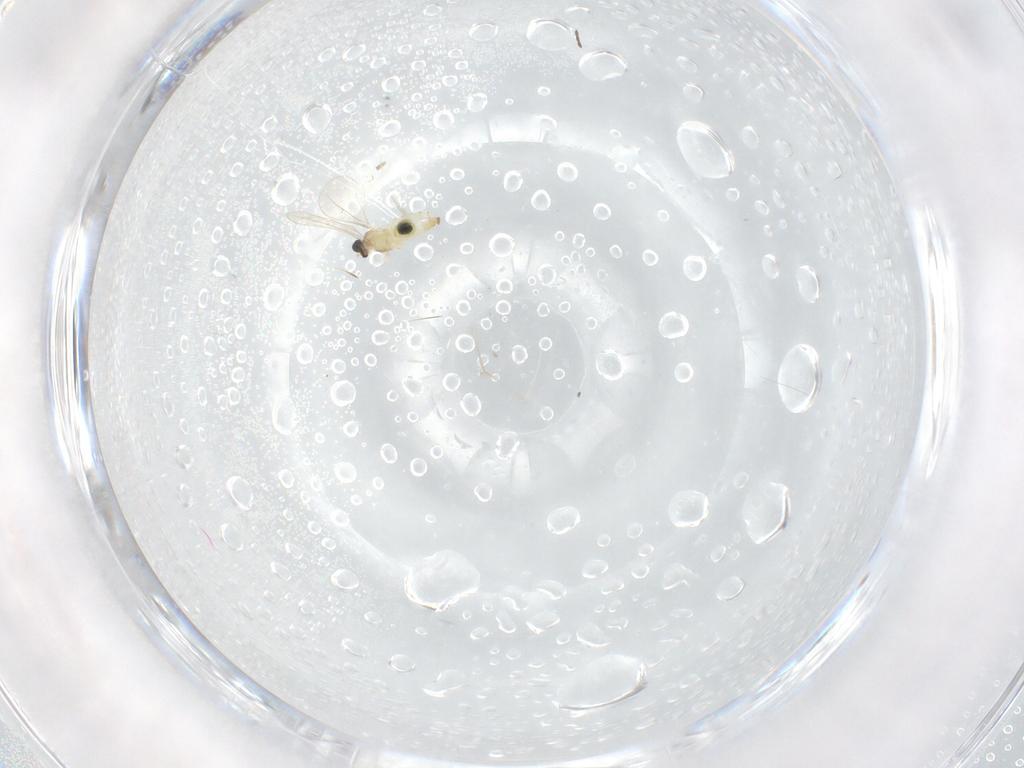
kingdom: Animalia
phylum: Arthropoda
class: Insecta
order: Diptera
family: Cecidomyiidae
